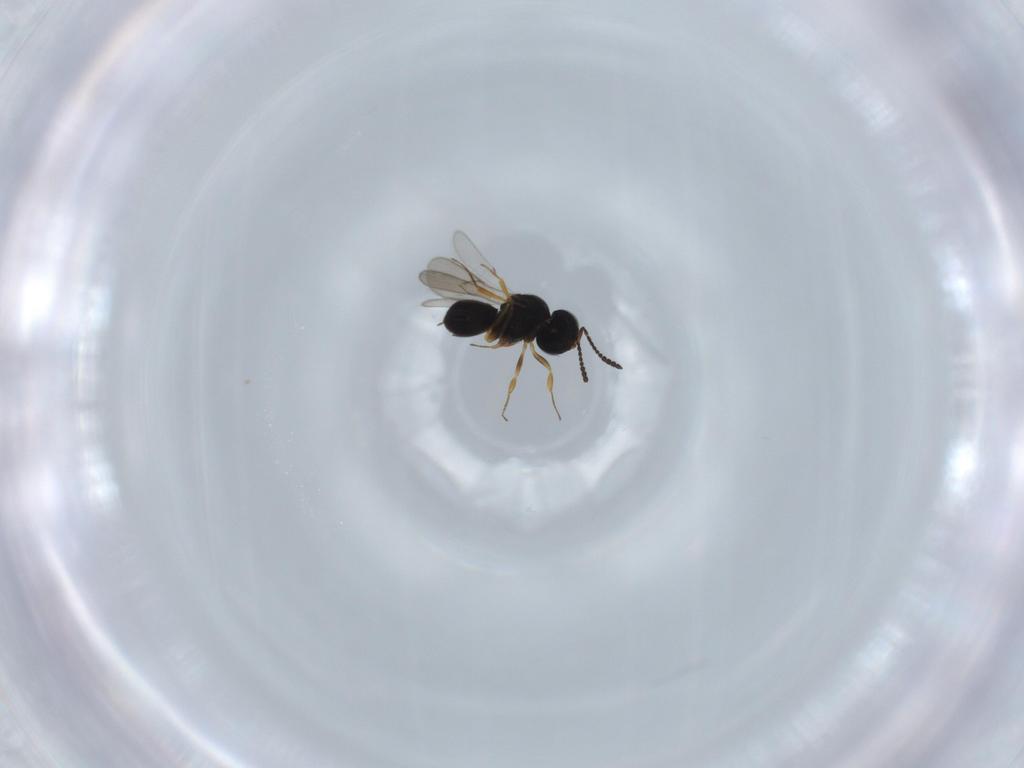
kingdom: Animalia
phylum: Arthropoda
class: Insecta
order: Hymenoptera
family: Scelionidae
